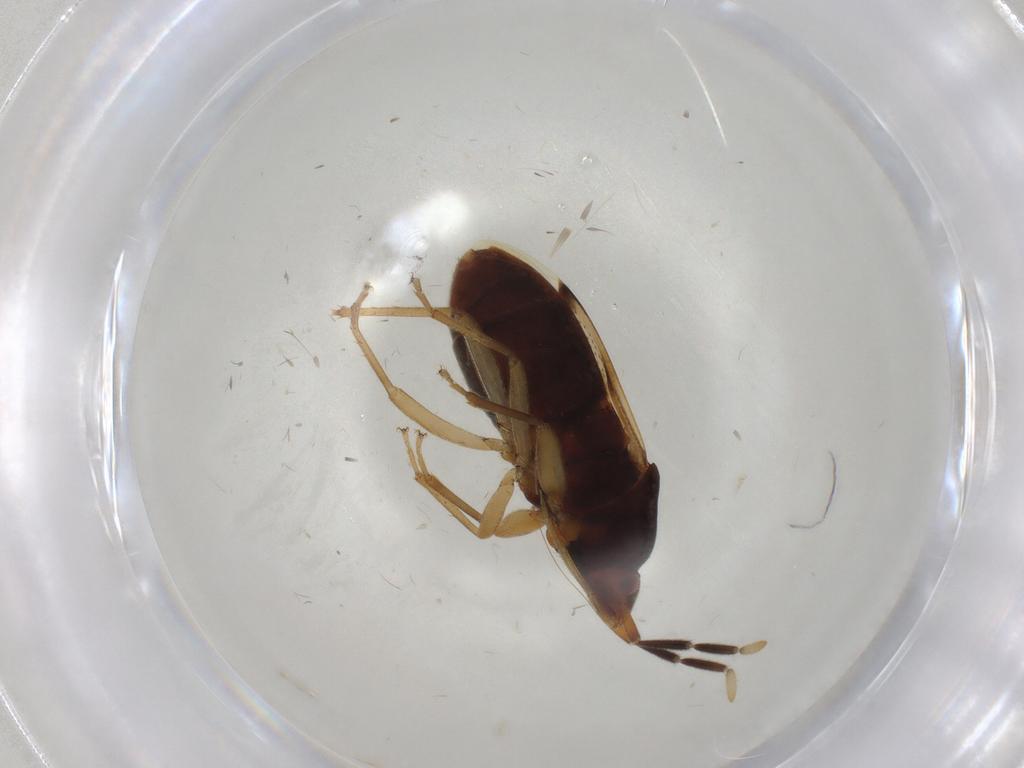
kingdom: Animalia
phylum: Arthropoda
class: Insecta
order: Hemiptera
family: Rhyparochromidae
